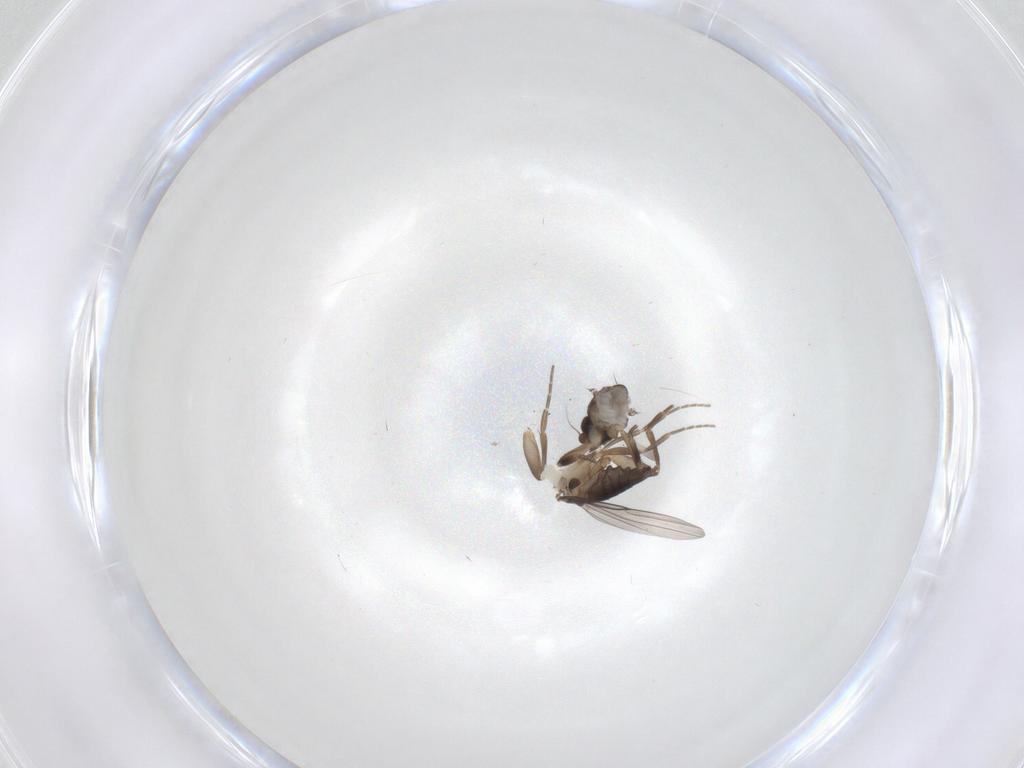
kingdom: Animalia
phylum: Arthropoda
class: Insecta
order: Diptera
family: Phoridae
